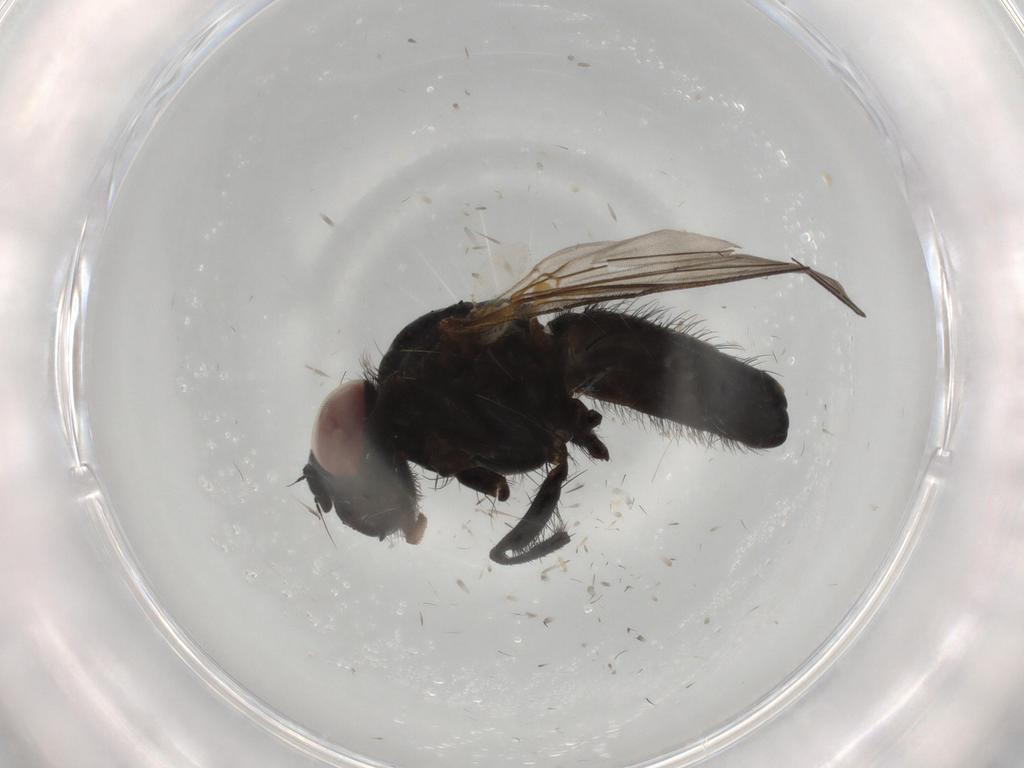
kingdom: Animalia
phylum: Arthropoda
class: Insecta
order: Diptera
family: Fannia
